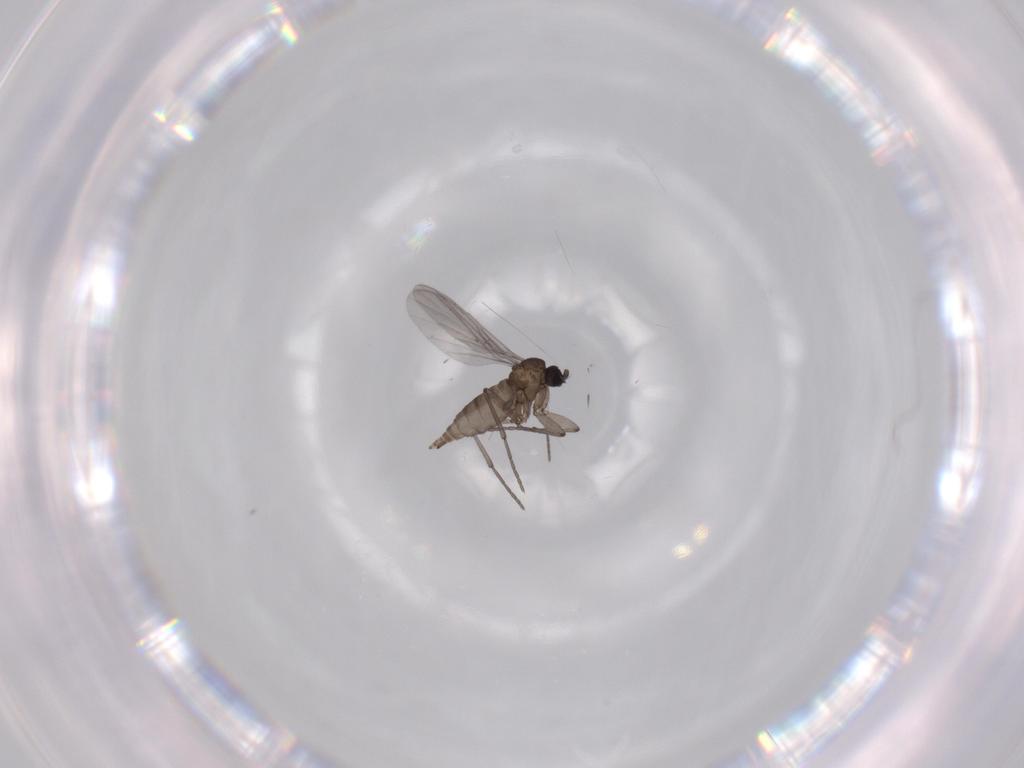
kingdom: Animalia
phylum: Arthropoda
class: Insecta
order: Diptera
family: Sciaridae
